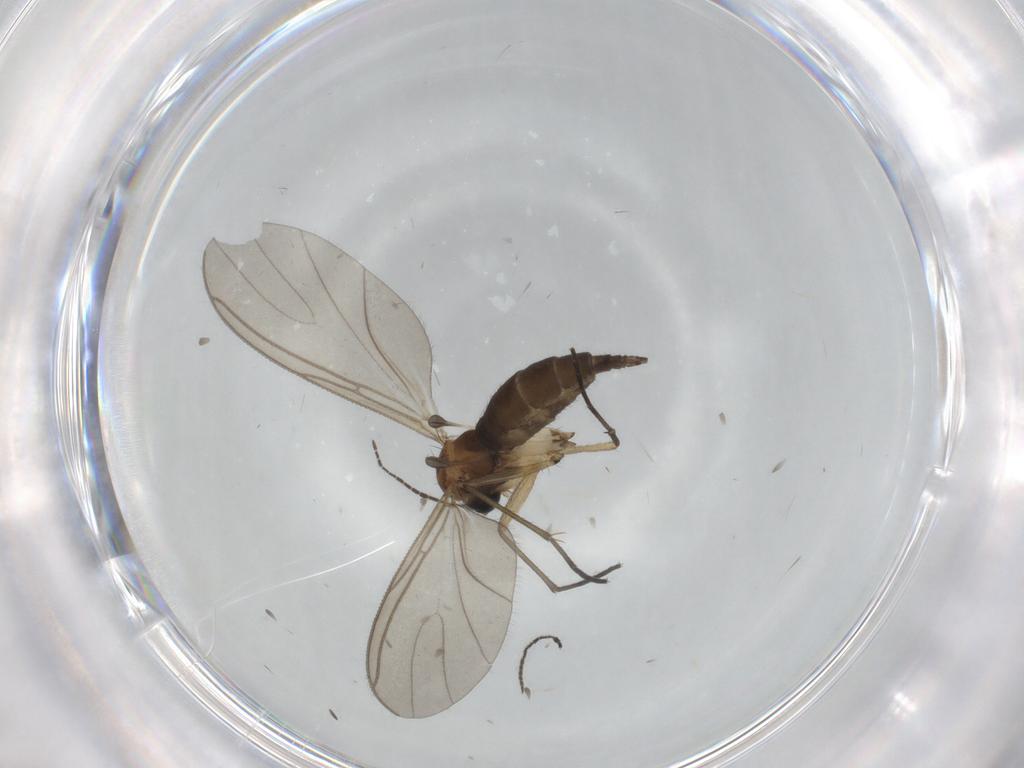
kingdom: Animalia
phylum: Arthropoda
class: Insecta
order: Diptera
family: Sciaridae
